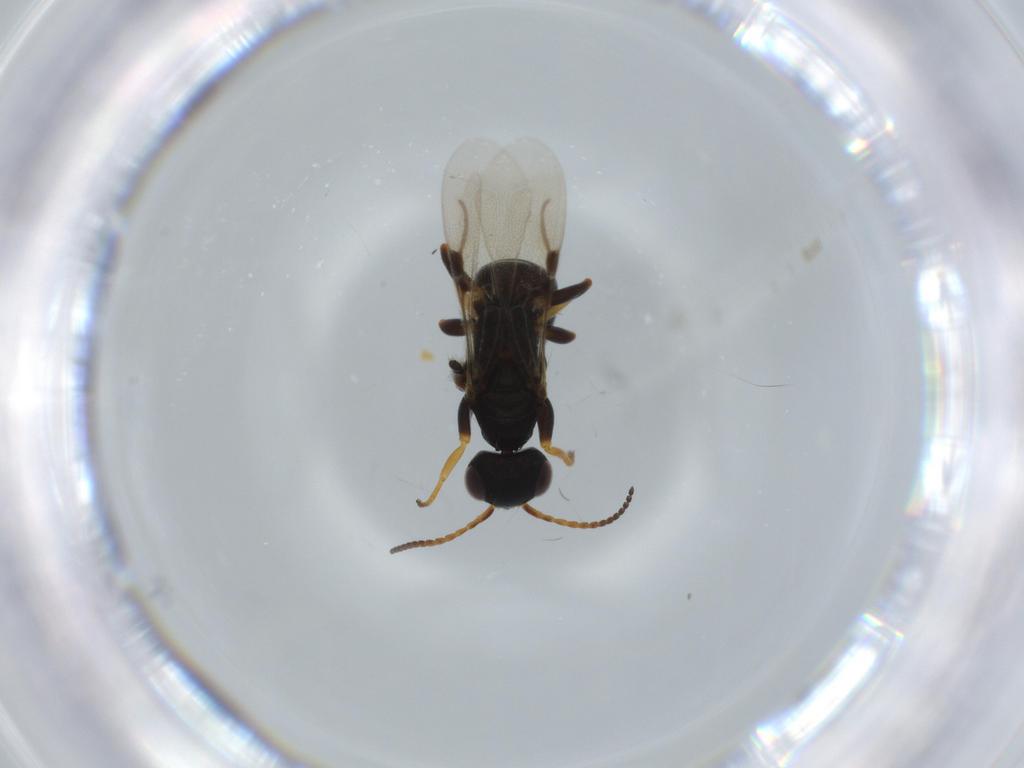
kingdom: Animalia
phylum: Arthropoda
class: Insecta
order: Hymenoptera
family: Bethylidae
